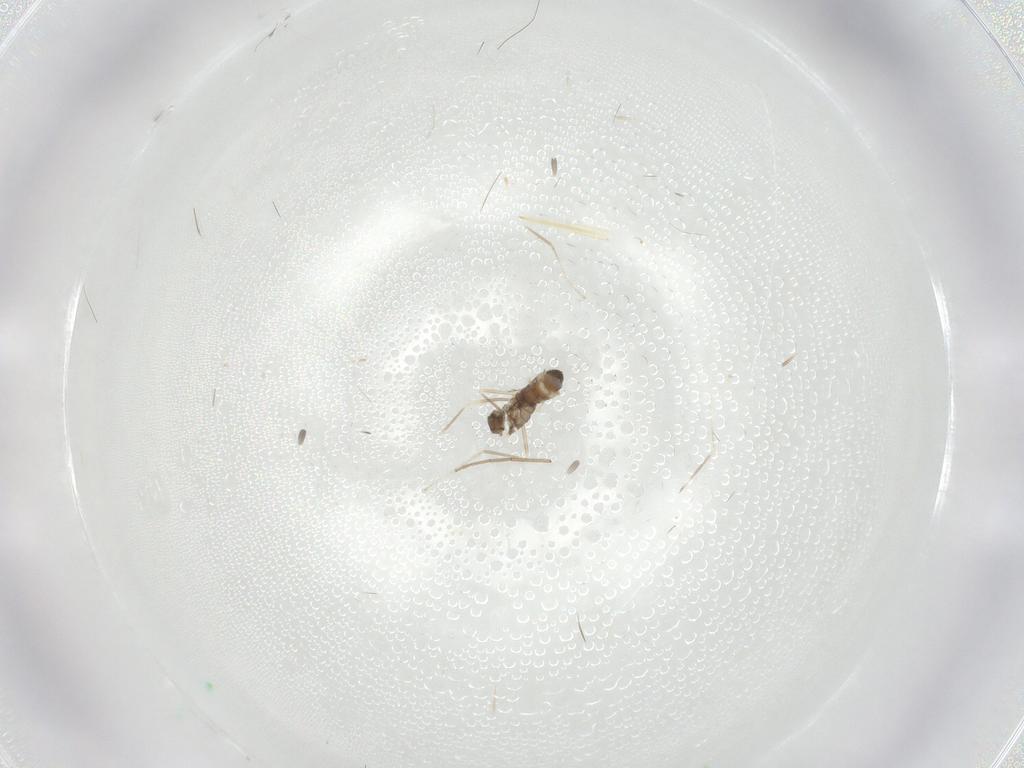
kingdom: Animalia
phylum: Arthropoda
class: Insecta
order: Diptera
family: Cecidomyiidae
